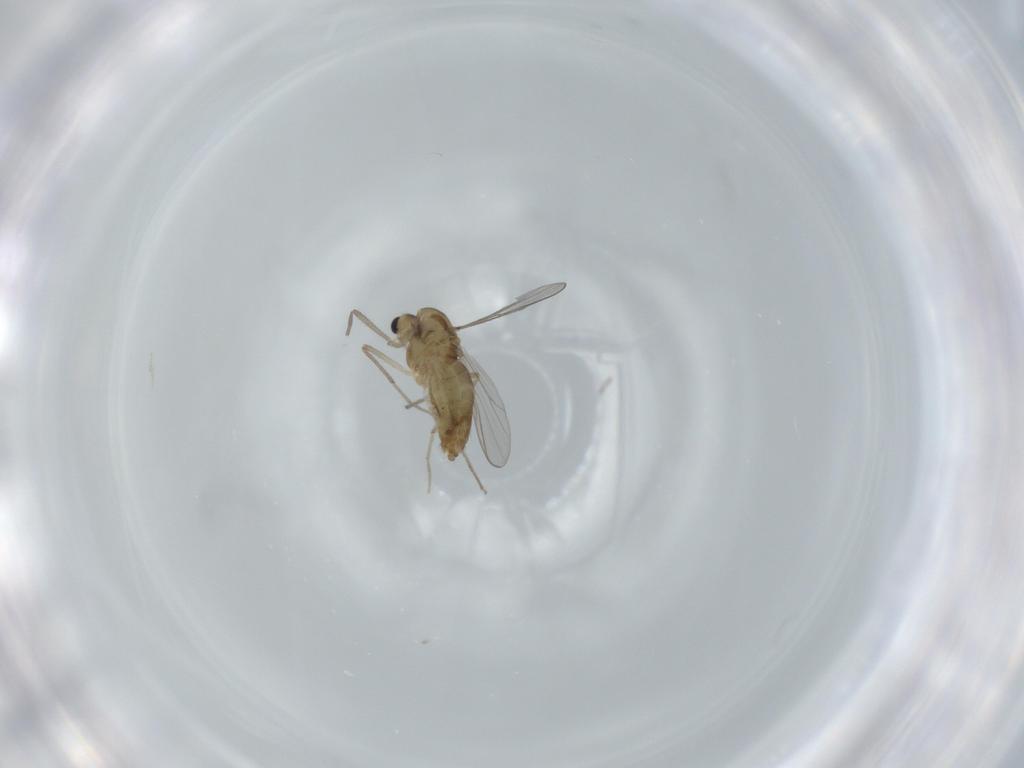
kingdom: Animalia
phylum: Arthropoda
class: Insecta
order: Diptera
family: Chironomidae
